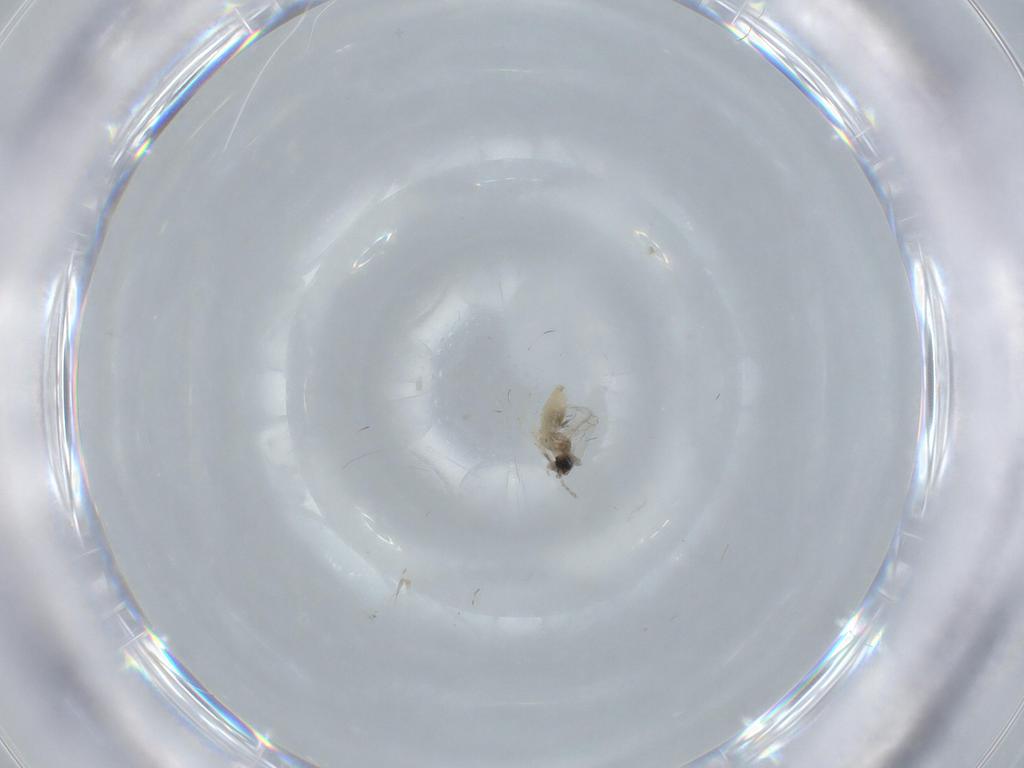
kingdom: Animalia
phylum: Arthropoda
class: Insecta
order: Diptera
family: Cecidomyiidae
